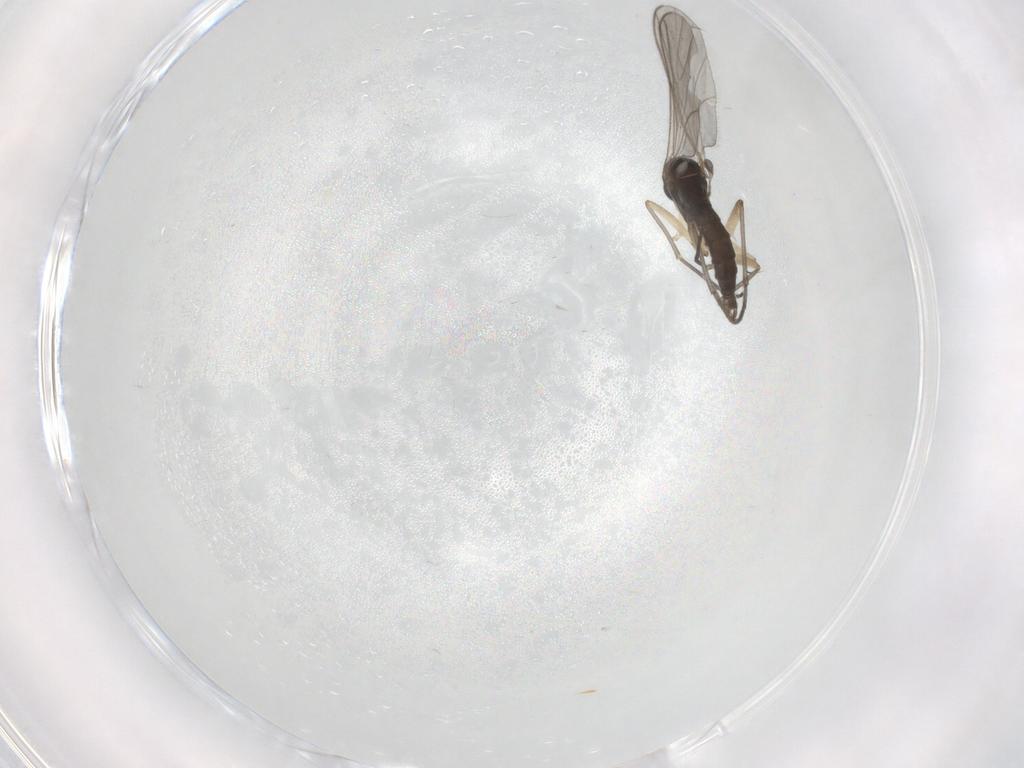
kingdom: Animalia
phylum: Arthropoda
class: Insecta
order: Diptera
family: Sciaridae
